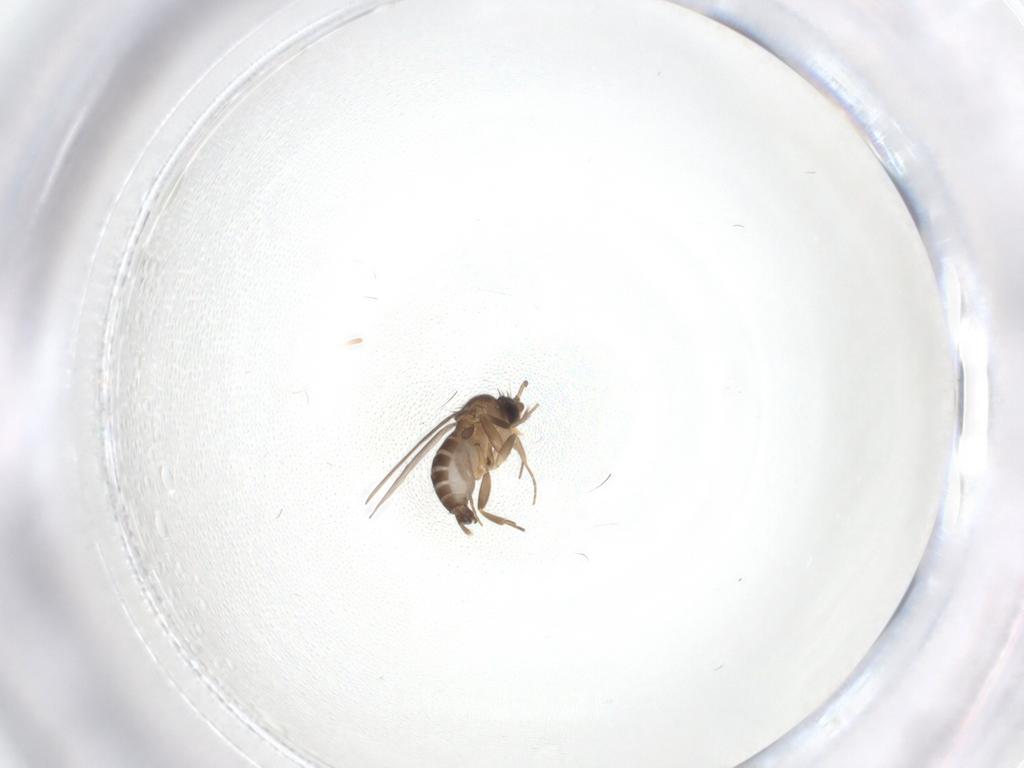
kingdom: Animalia
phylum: Arthropoda
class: Insecta
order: Diptera
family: Phoridae
